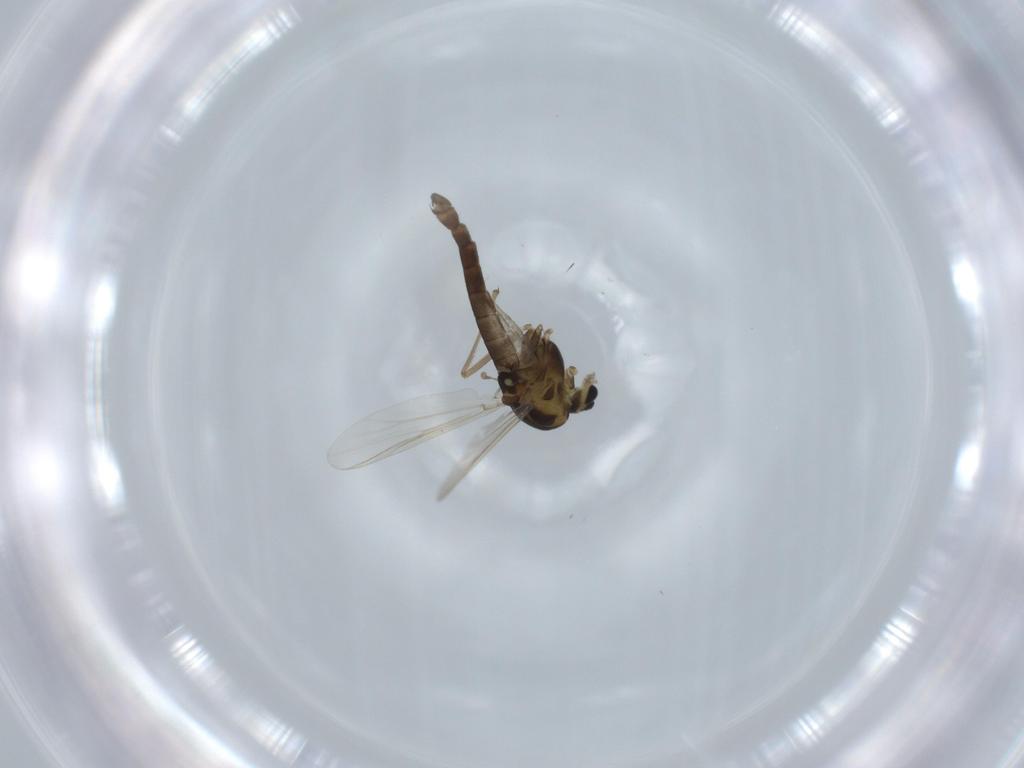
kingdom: Animalia
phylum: Arthropoda
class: Insecta
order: Diptera
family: Chironomidae
